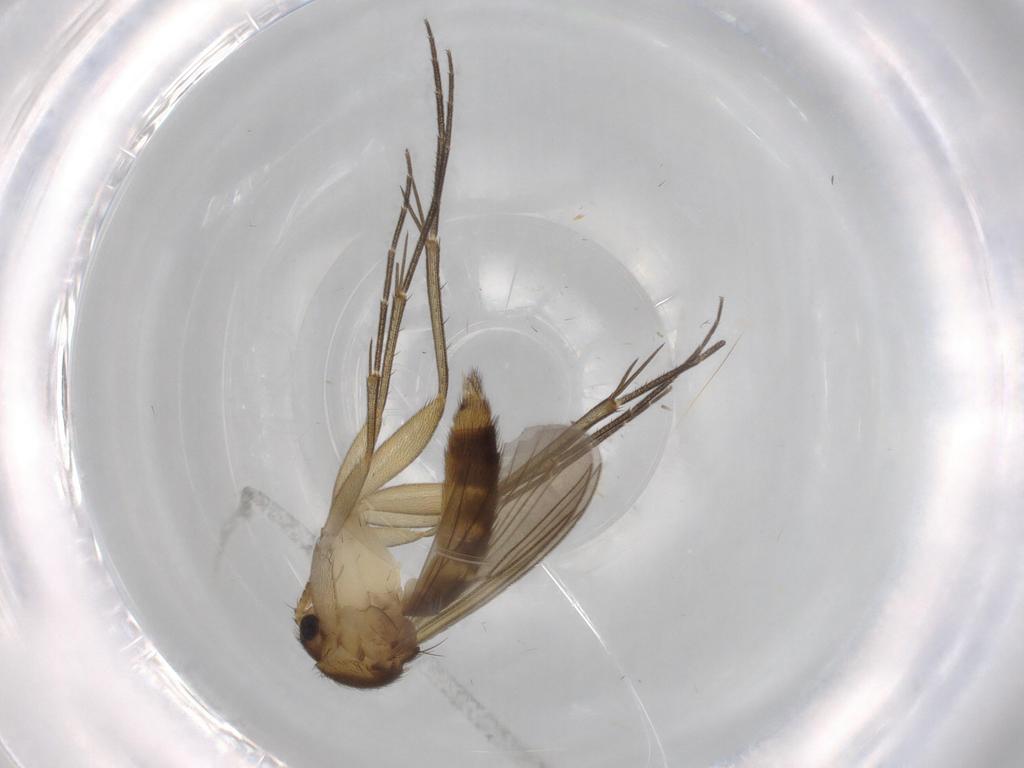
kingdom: Animalia
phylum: Arthropoda
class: Insecta
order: Diptera
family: Mycetophilidae
